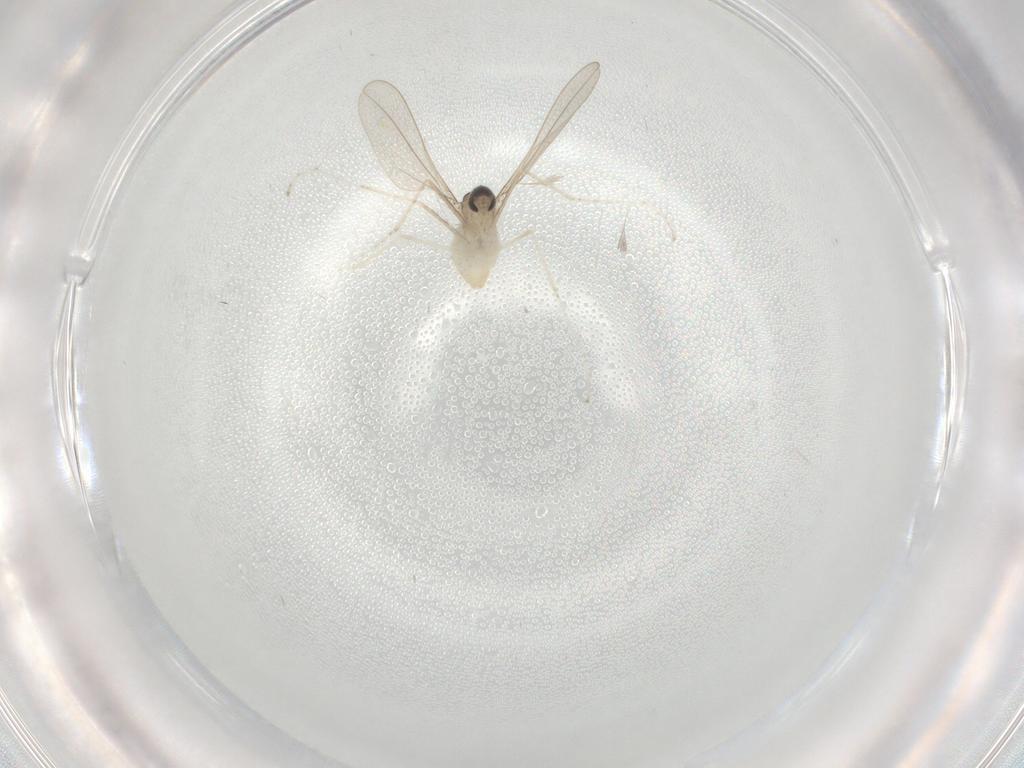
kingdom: Animalia
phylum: Arthropoda
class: Insecta
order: Diptera
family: Cecidomyiidae
